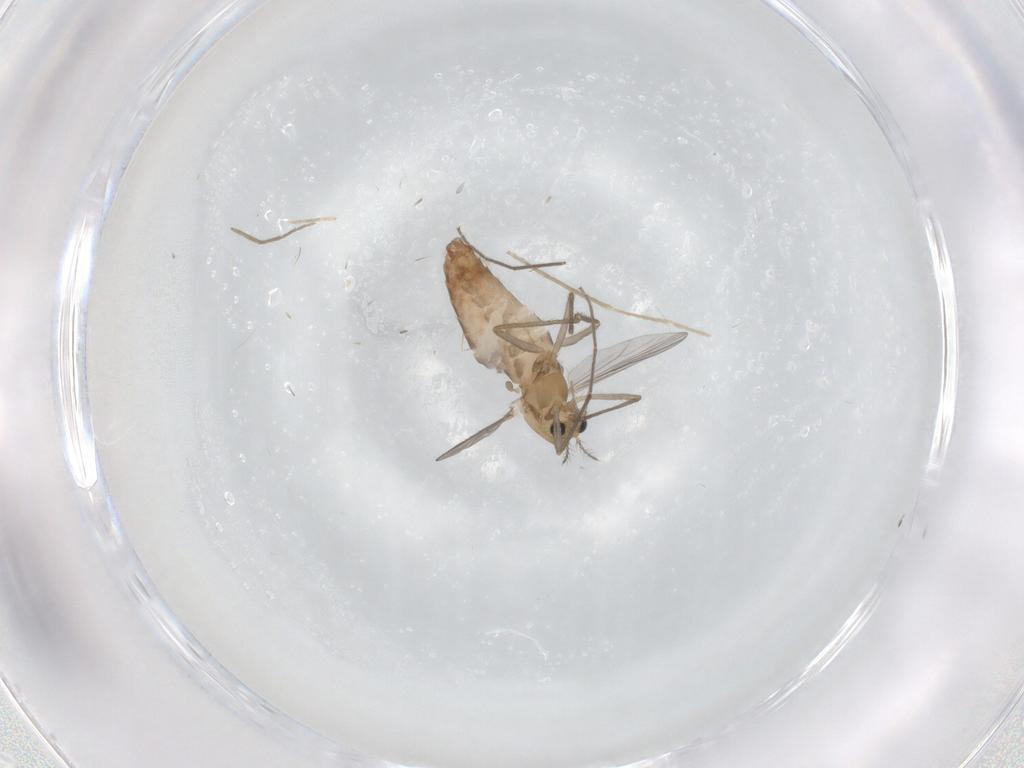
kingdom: Animalia
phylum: Arthropoda
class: Insecta
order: Diptera
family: Chironomidae
